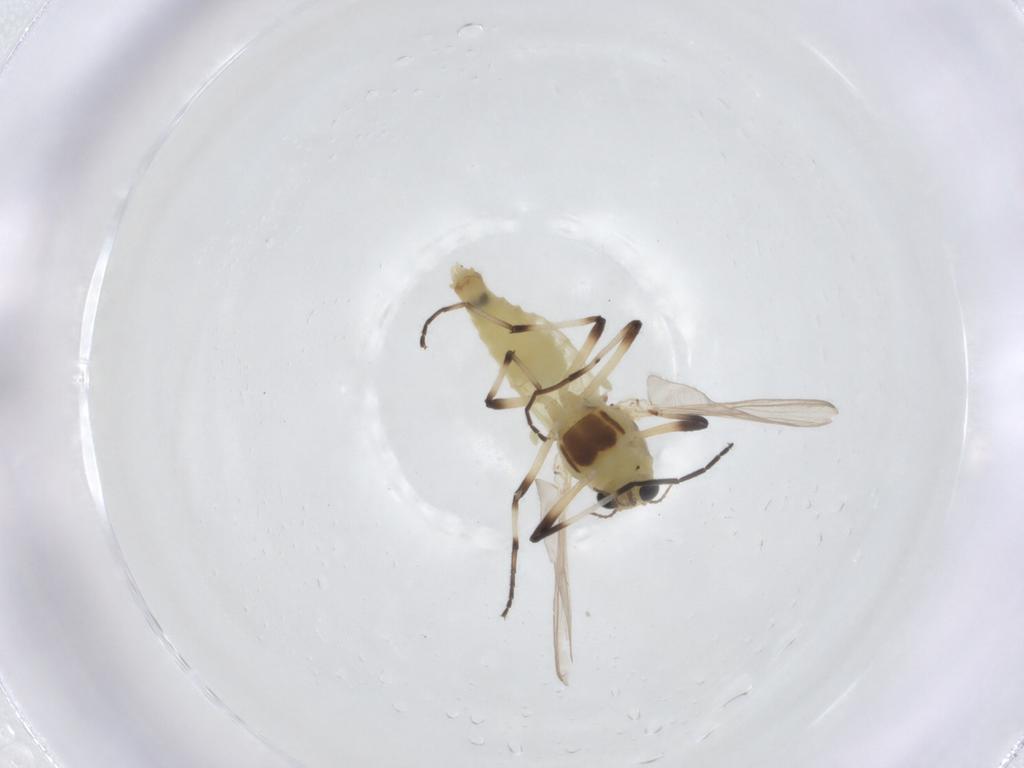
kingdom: Animalia
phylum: Arthropoda
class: Insecta
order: Diptera
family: Chironomidae
